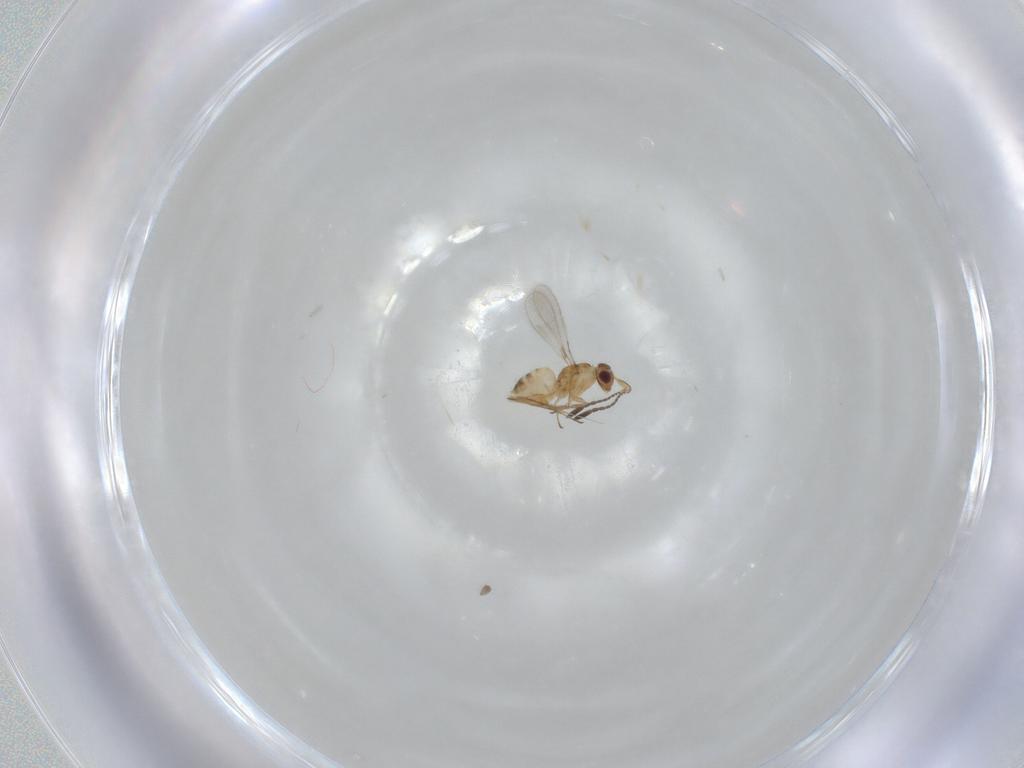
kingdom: Animalia
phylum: Arthropoda
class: Insecta
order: Hymenoptera
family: Mymaridae
